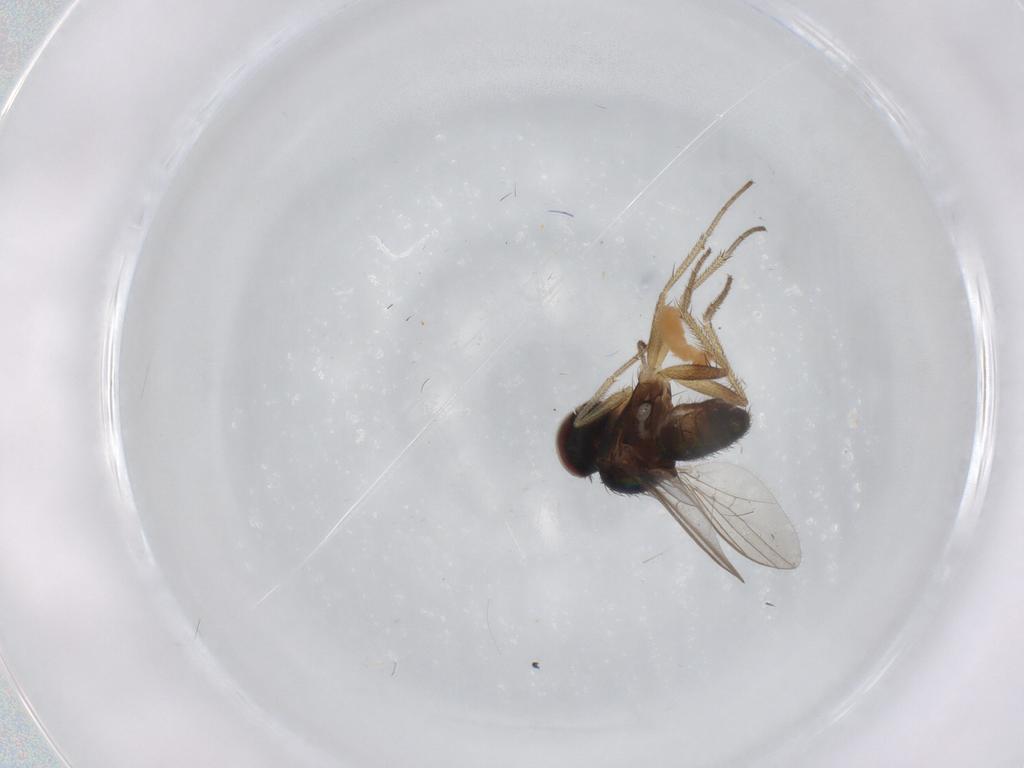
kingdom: Animalia
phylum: Arthropoda
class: Insecta
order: Diptera
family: Dolichopodidae
